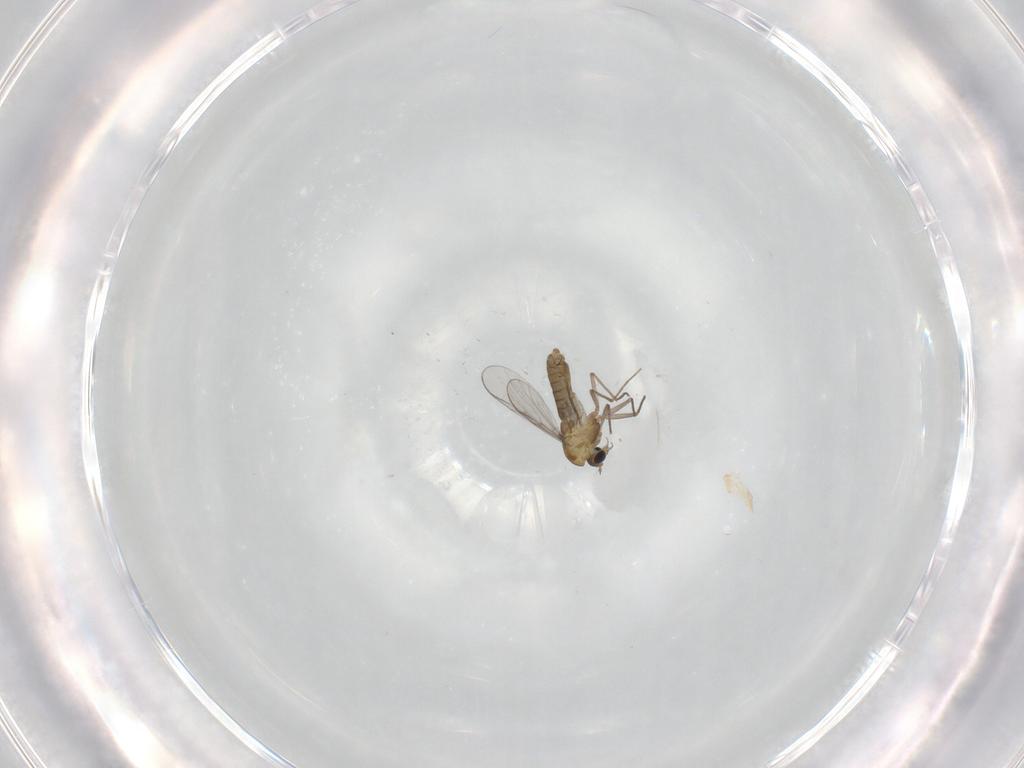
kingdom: Animalia
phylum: Arthropoda
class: Insecta
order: Diptera
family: Chironomidae
